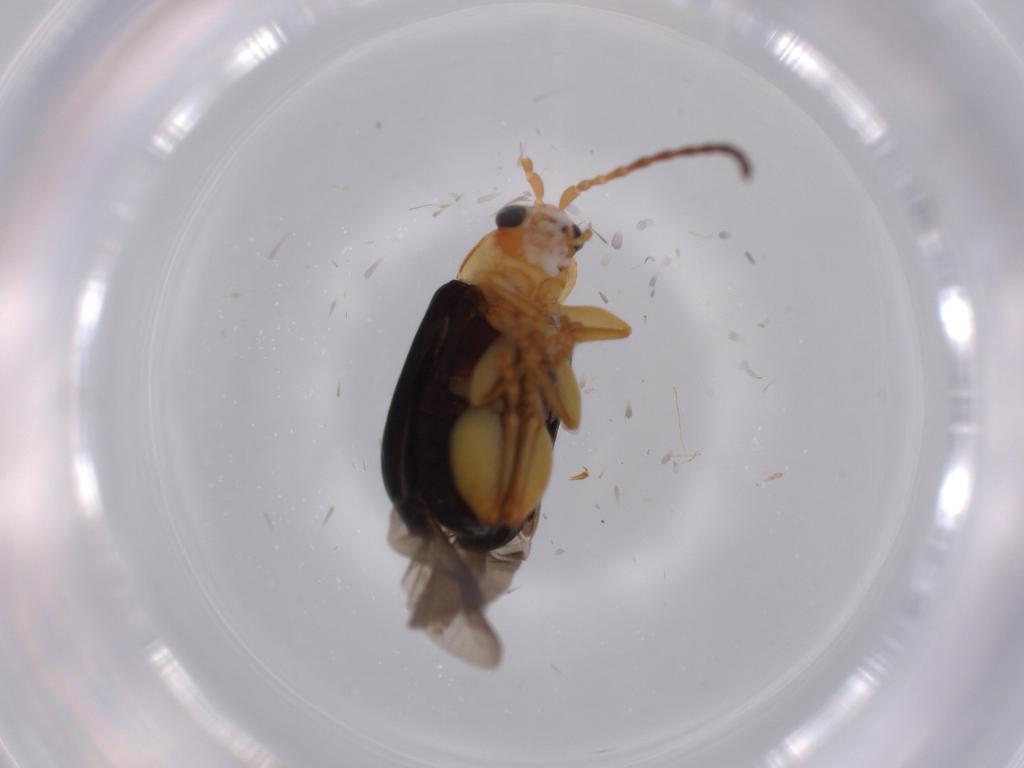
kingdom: Animalia
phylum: Arthropoda
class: Insecta
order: Coleoptera
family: Chrysomelidae
